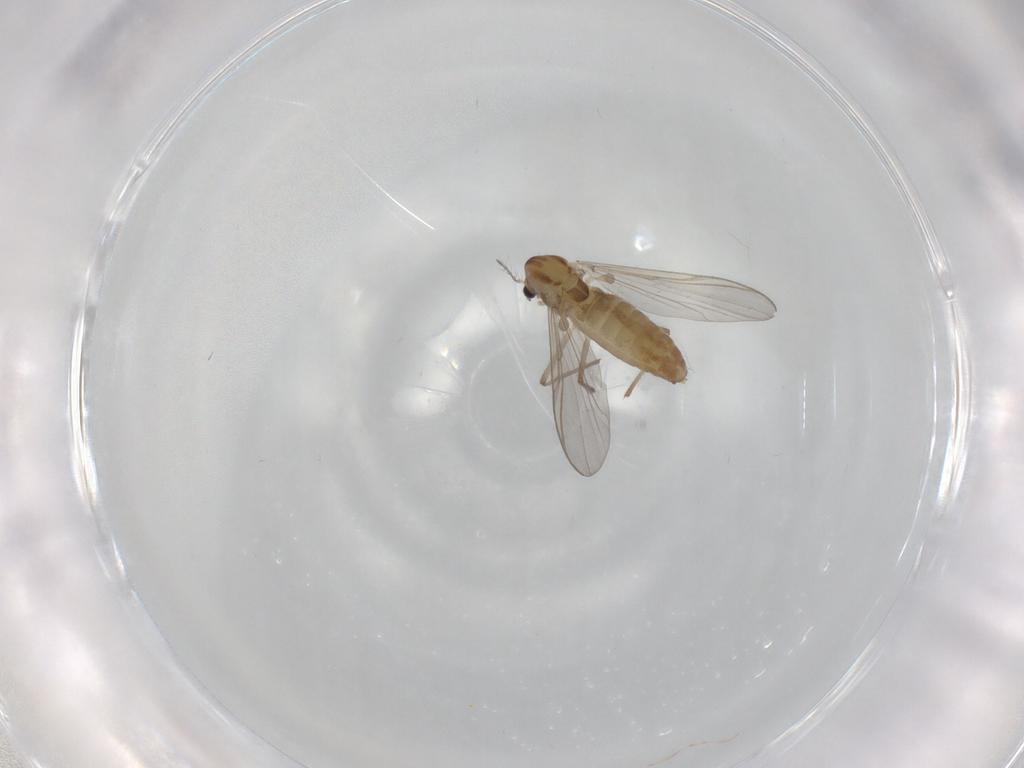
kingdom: Animalia
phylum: Arthropoda
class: Insecta
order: Diptera
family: Chironomidae
